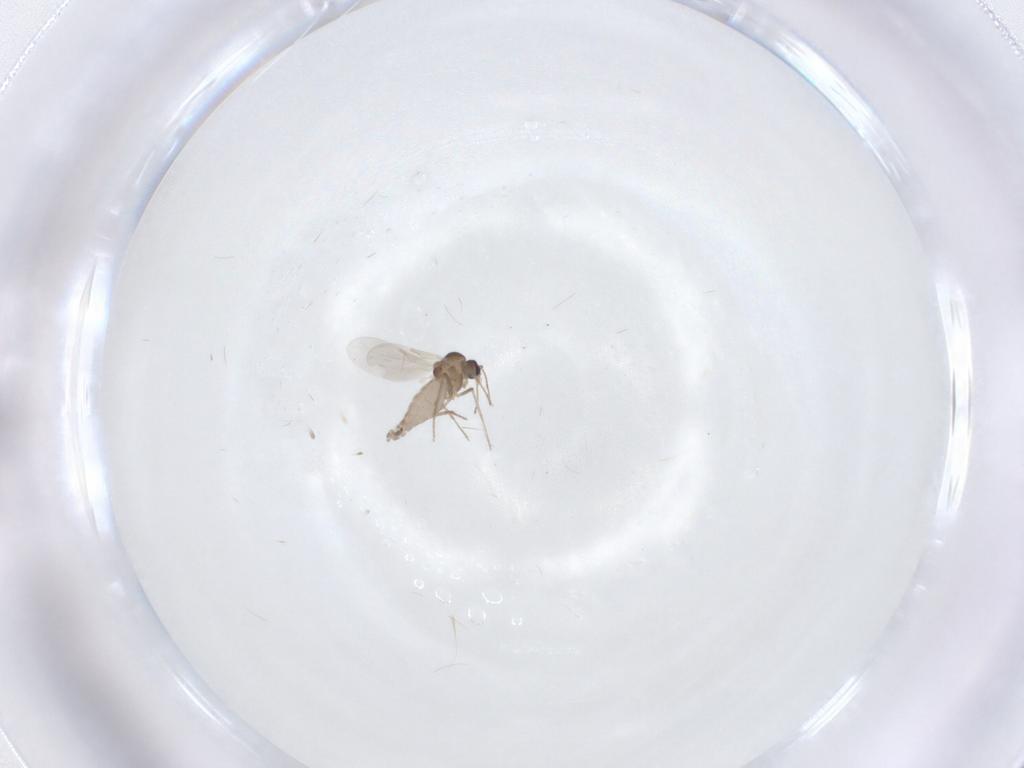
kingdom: Animalia
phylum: Arthropoda
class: Insecta
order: Diptera
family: Ceratopogonidae
